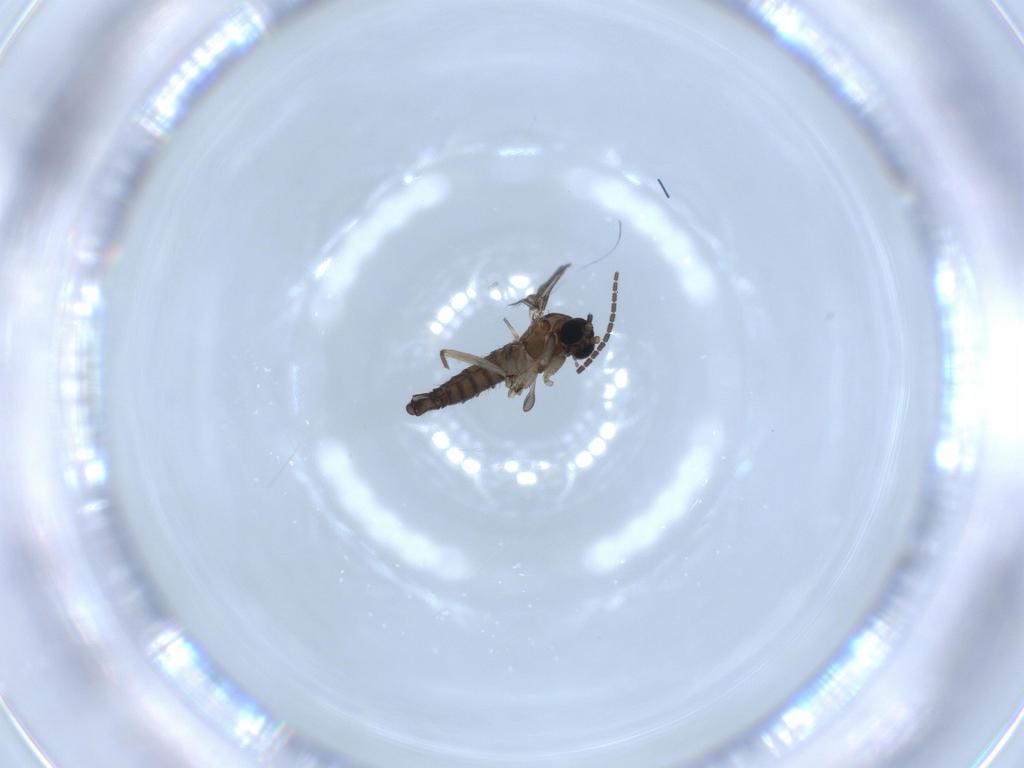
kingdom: Animalia
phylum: Arthropoda
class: Insecta
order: Diptera
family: Sciaridae
